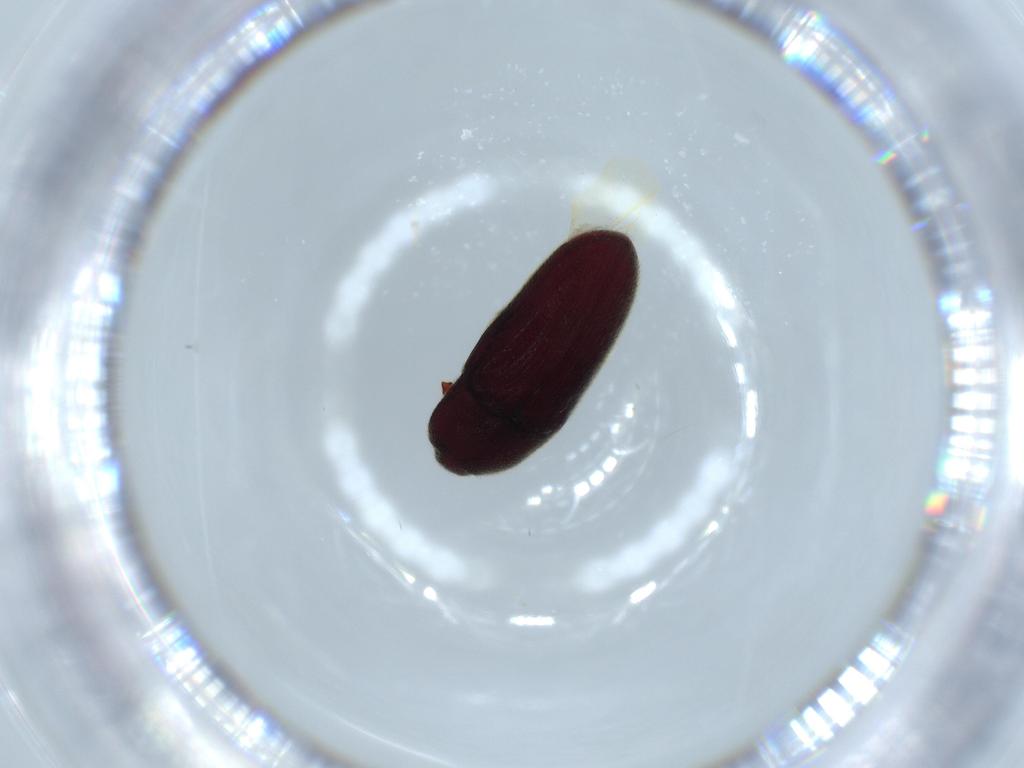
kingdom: Animalia
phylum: Arthropoda
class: Insecta
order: Coleoptera
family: Throscidae
